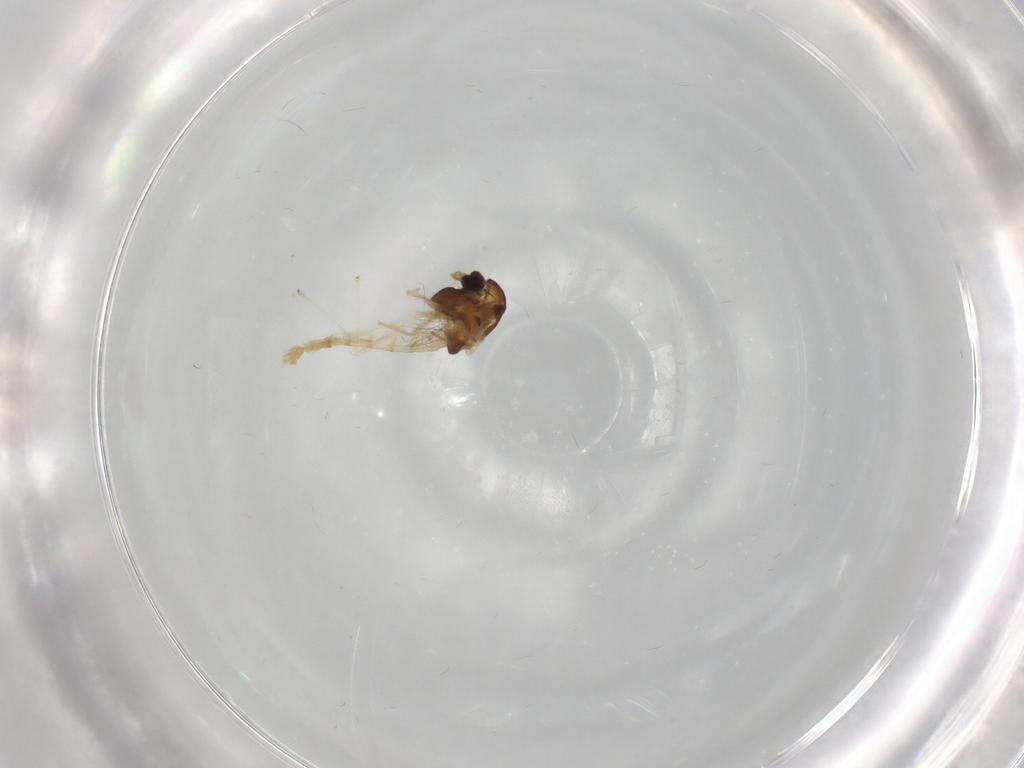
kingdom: Animalia
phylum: Arthropoda
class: Insecta
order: Diptera
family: Chironomidae
